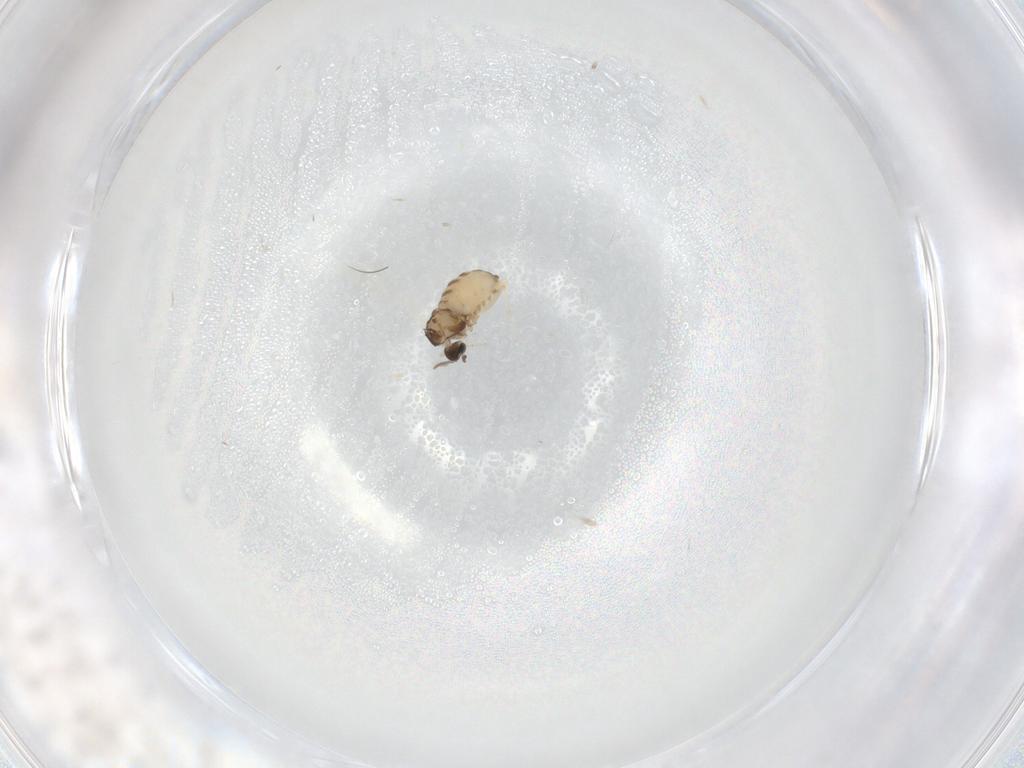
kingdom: Animalia
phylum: Arthropoda
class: Insecta
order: Diptera
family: Cecidomyiidae
